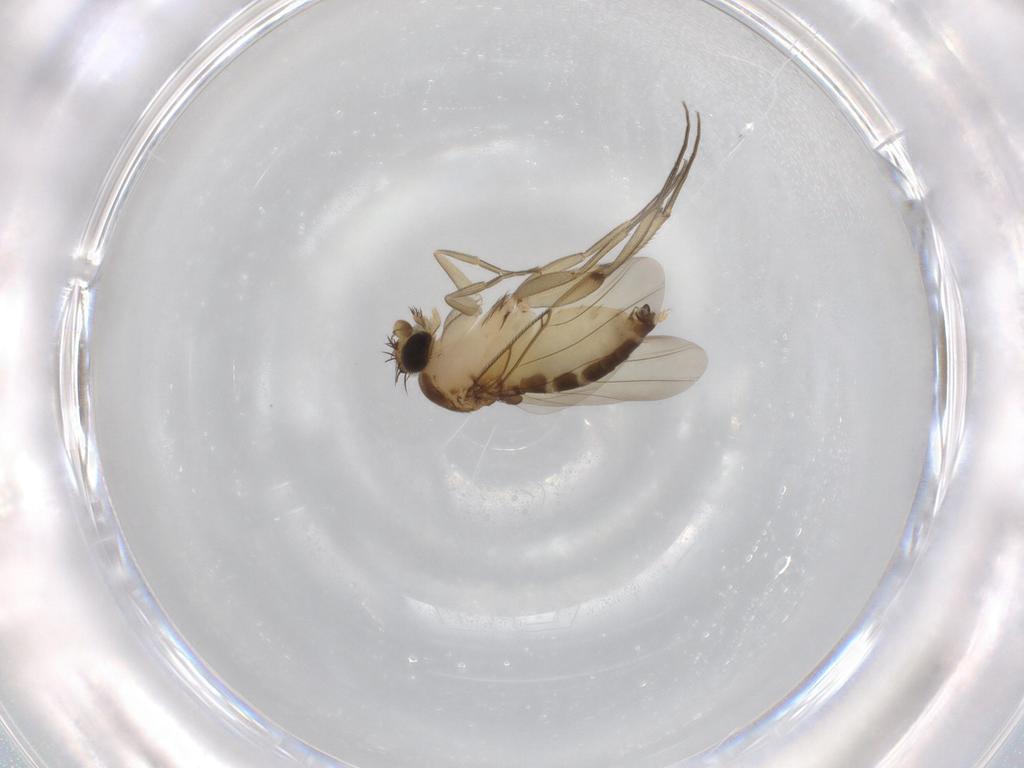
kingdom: Animalia
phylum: Arthropoda
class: Insecta
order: Diptera
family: Phoridae
